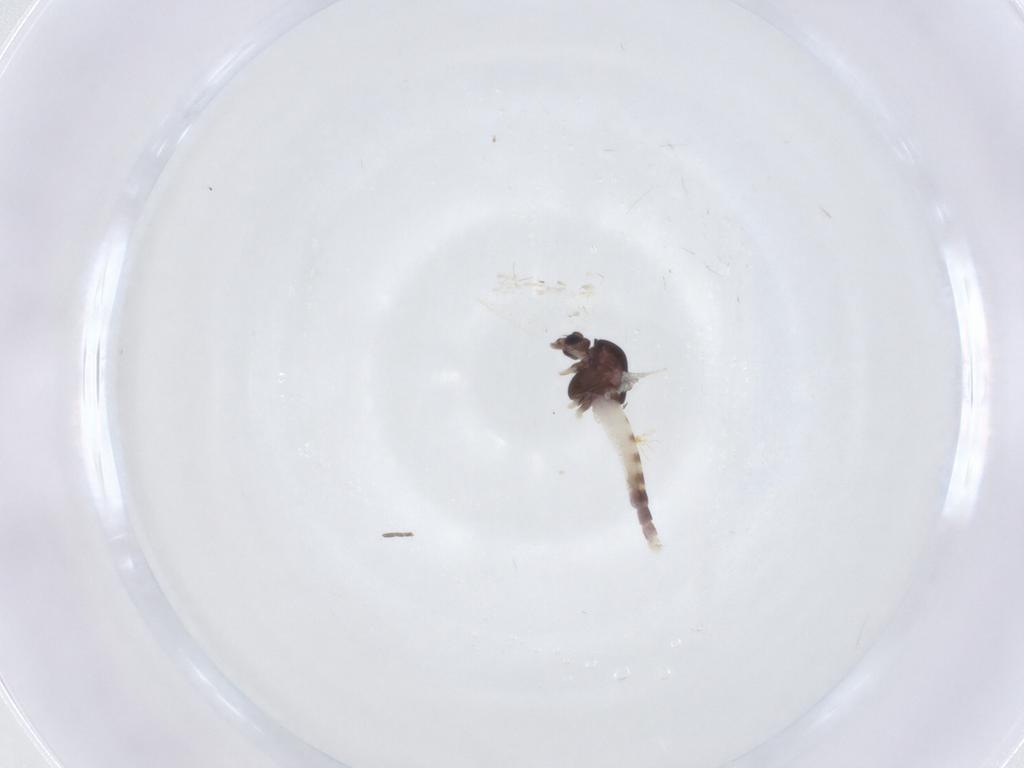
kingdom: Animalia
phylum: Arthropoda
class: Insecta
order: Diptera
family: Chironomidae
